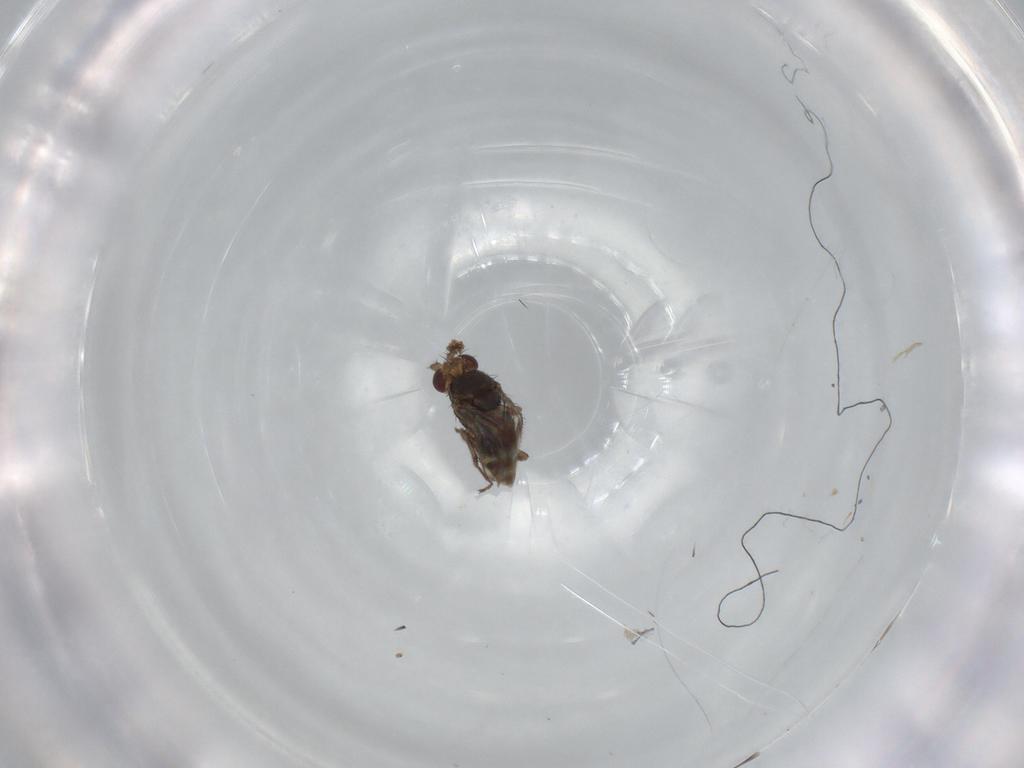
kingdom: Animalia
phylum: Arthropoda
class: Insecta
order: Diptera
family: Sphaeroceridae
